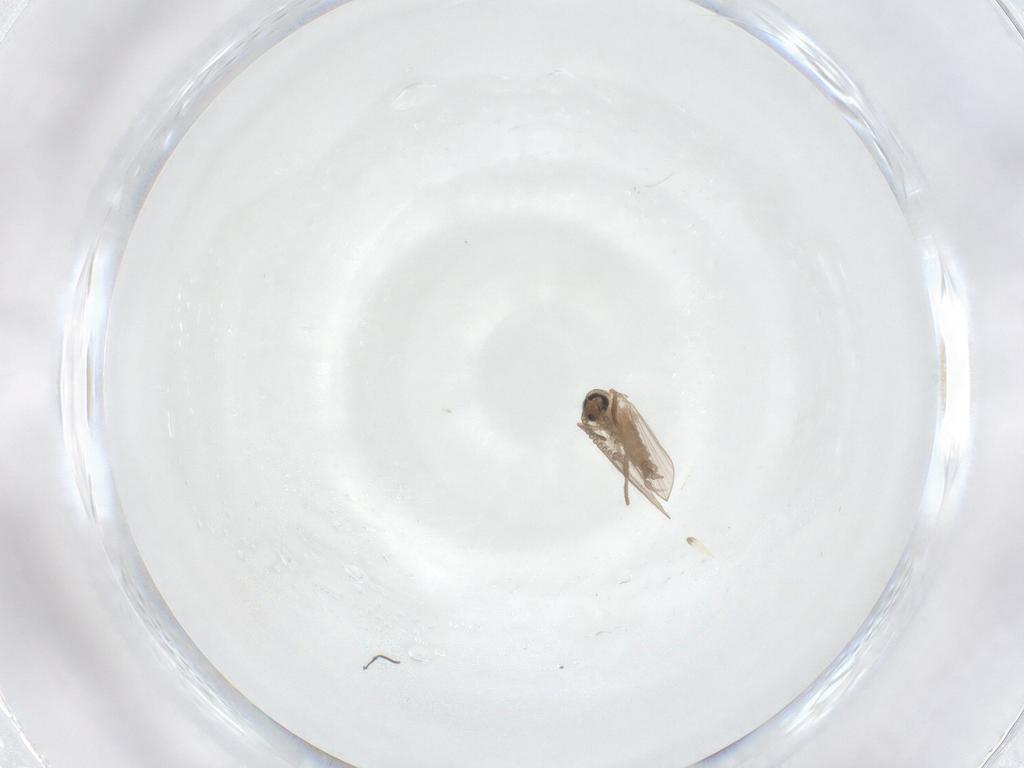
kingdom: Animalia
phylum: Arthropoda
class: Insecta
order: Diptera
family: Psychodidae
